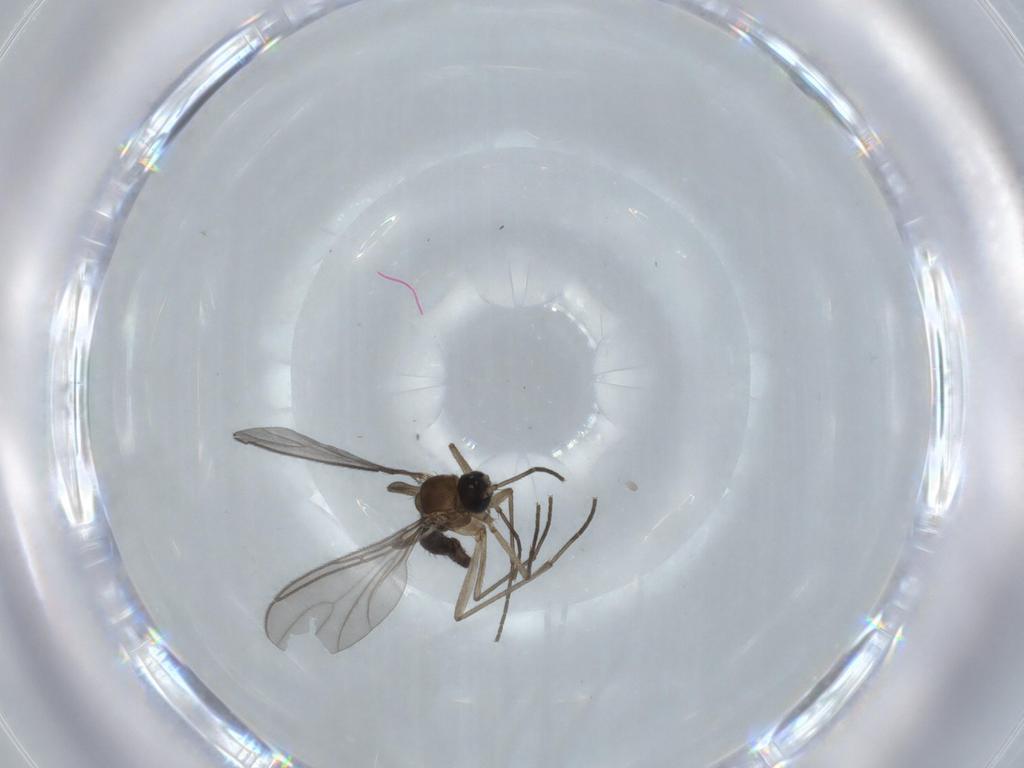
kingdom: Animalia
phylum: Arthropoda
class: Insecta
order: Diptera
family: Sciaridae
